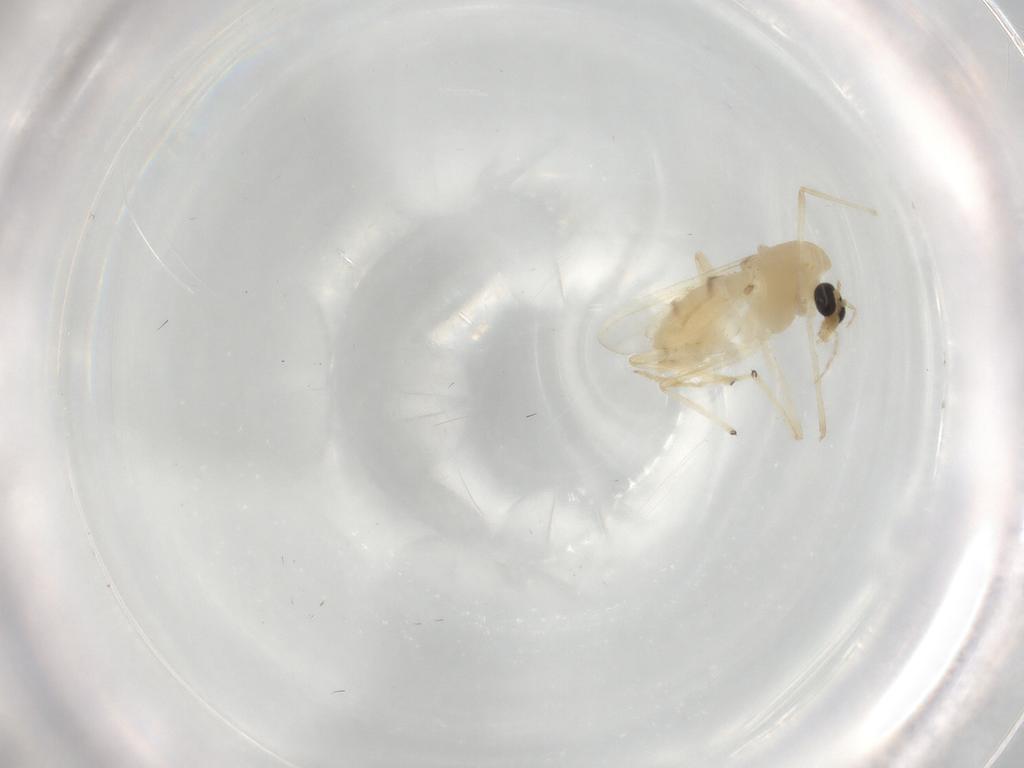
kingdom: Animalia
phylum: Arthropoda
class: Insecta
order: Diptera
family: Chironomidae
